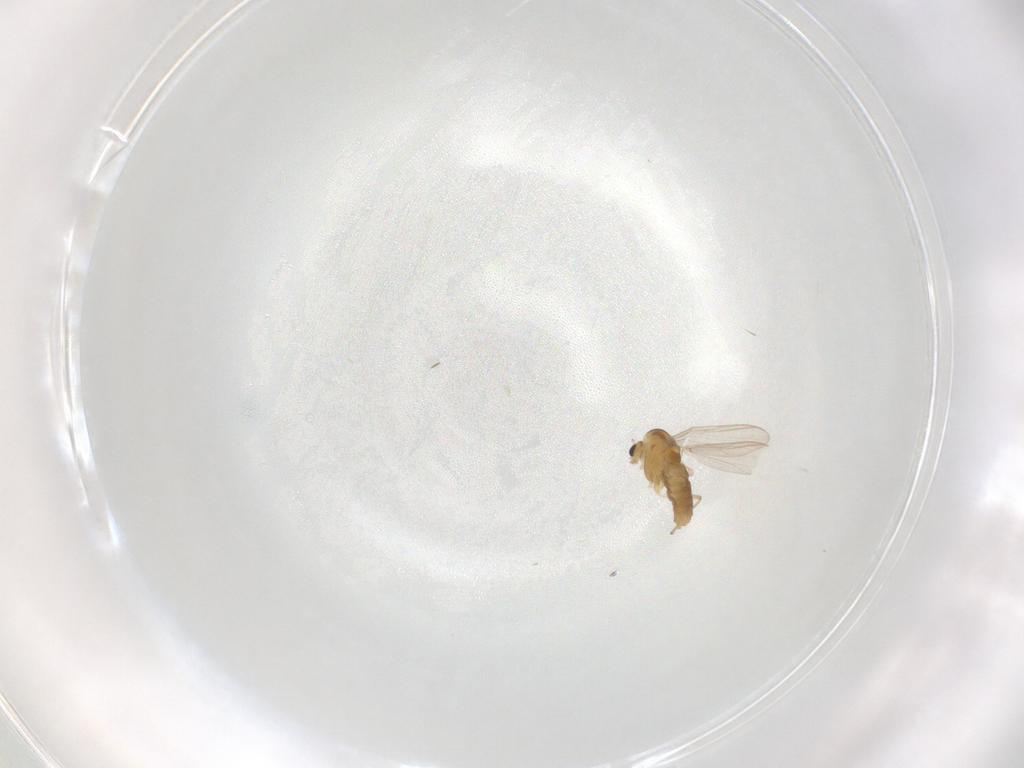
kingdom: Animalia
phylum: Arthropoda
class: Insecta
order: Diptera
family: Chironomidae
